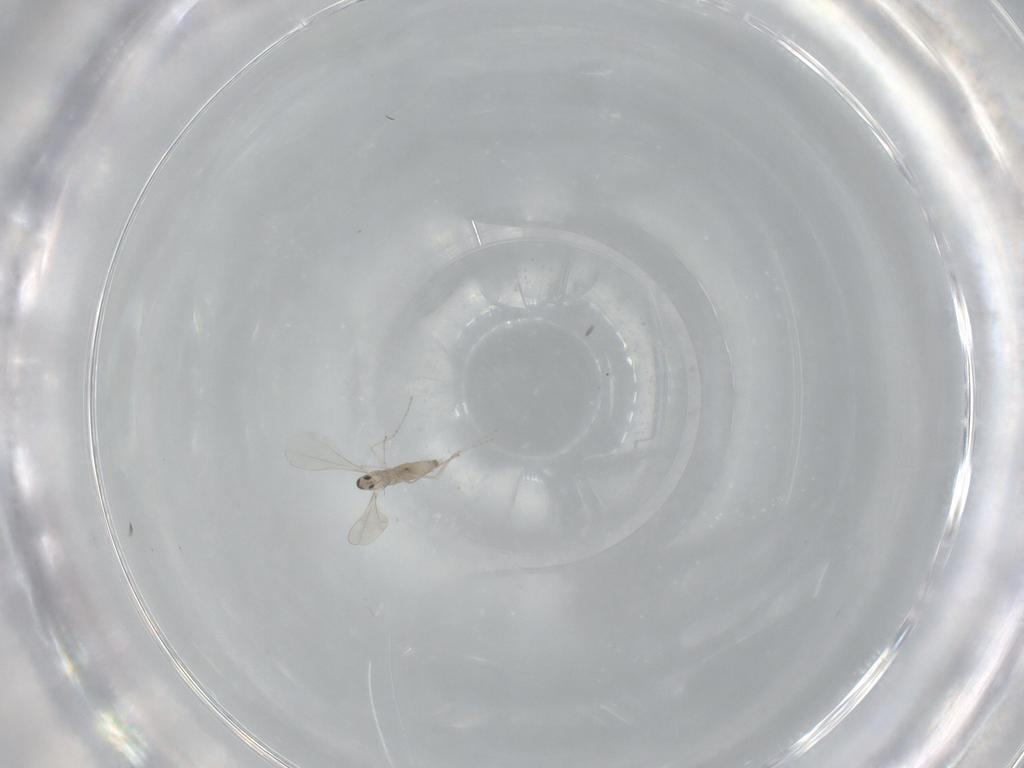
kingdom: Animalia
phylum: Arthropoda
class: Insecta
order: Diptera
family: Cecidomyiidae
